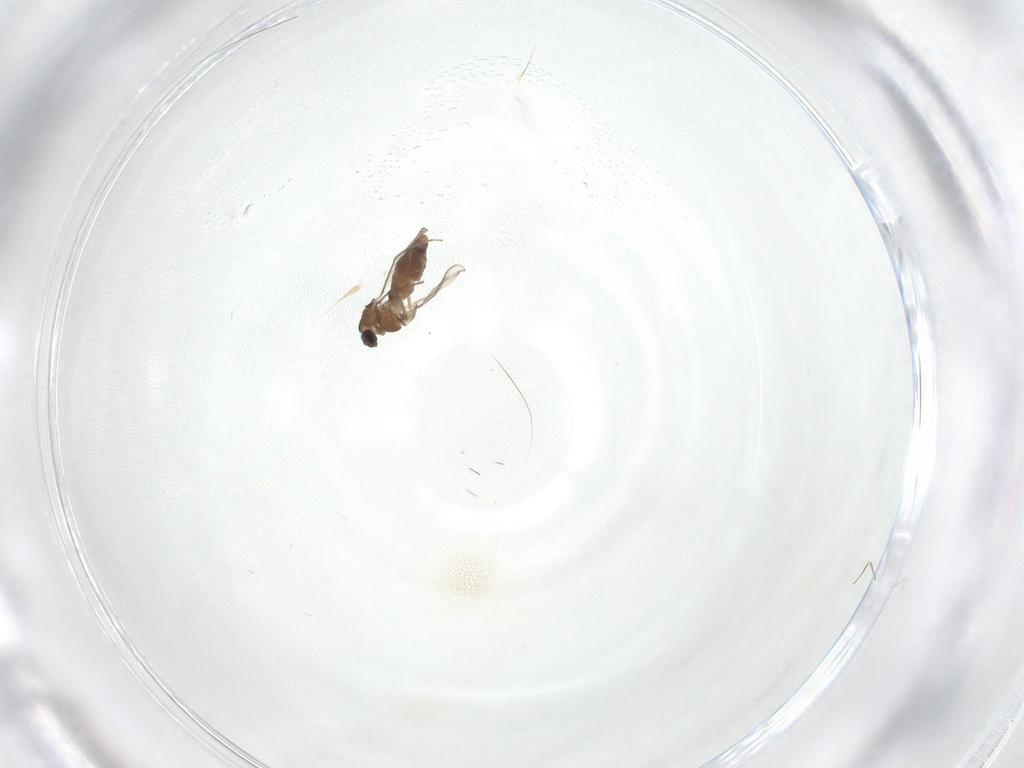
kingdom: Animalia
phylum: Arthropoda
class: Insecta
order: Diptera
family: Chironomidae
